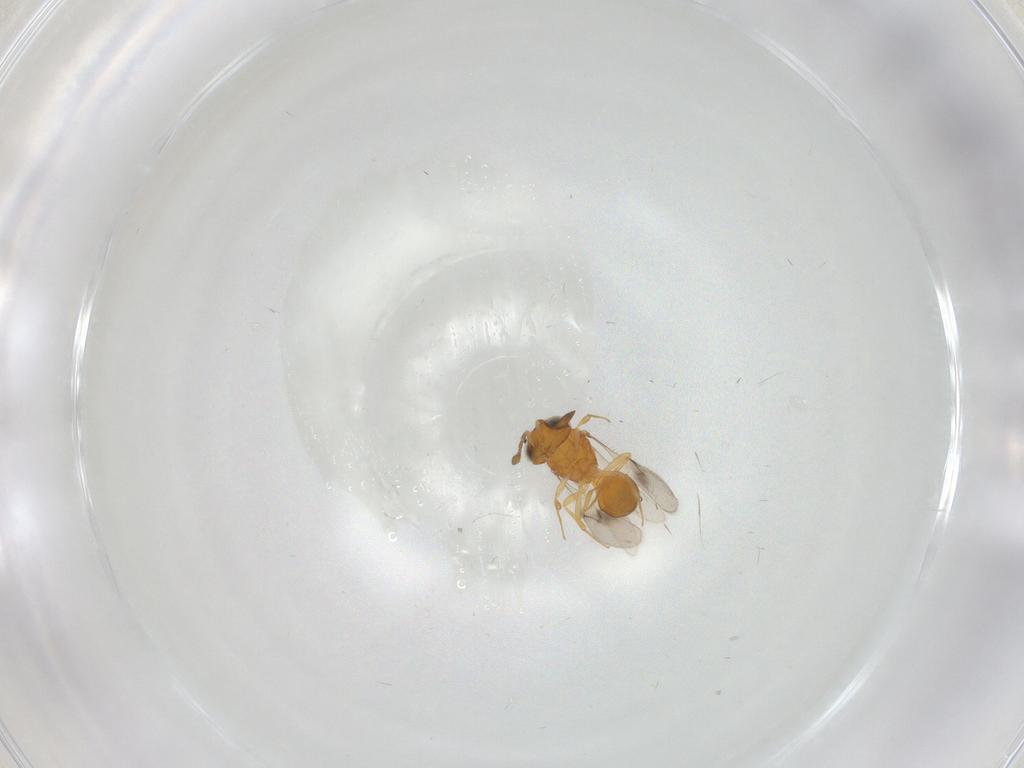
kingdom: Animalia
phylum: Arthropoda
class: Insecta
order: Hymenoptera
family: Scelionidae
